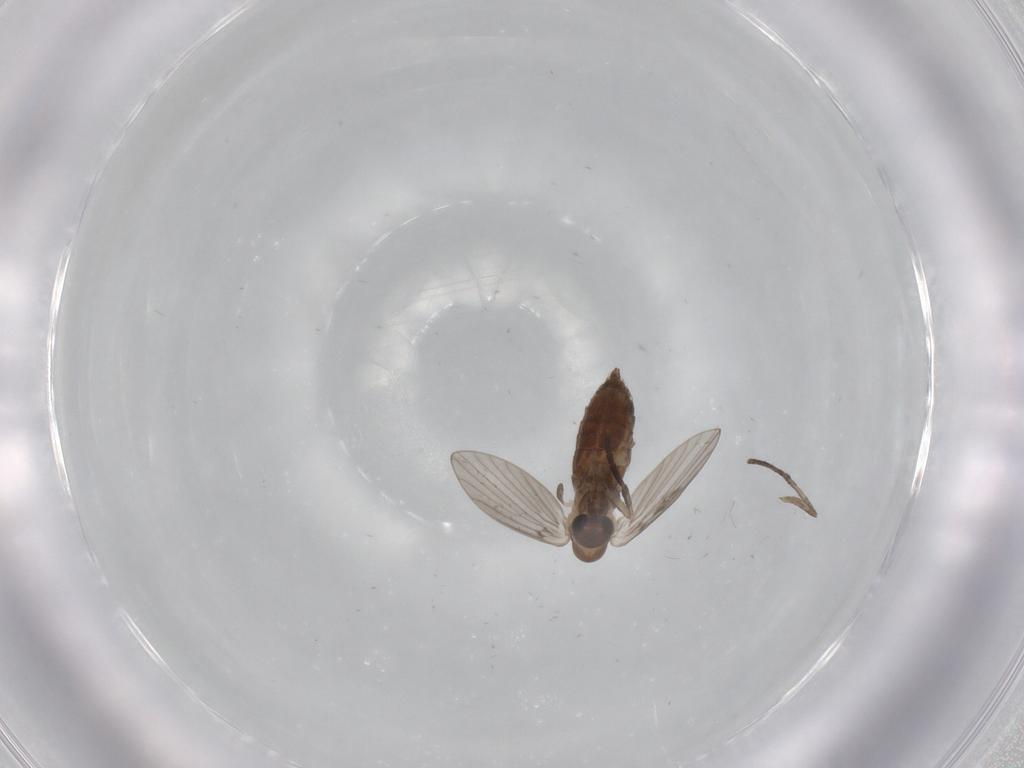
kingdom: Animalia
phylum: Arthropoda
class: Insecta
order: Diptera
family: Psychodidae
